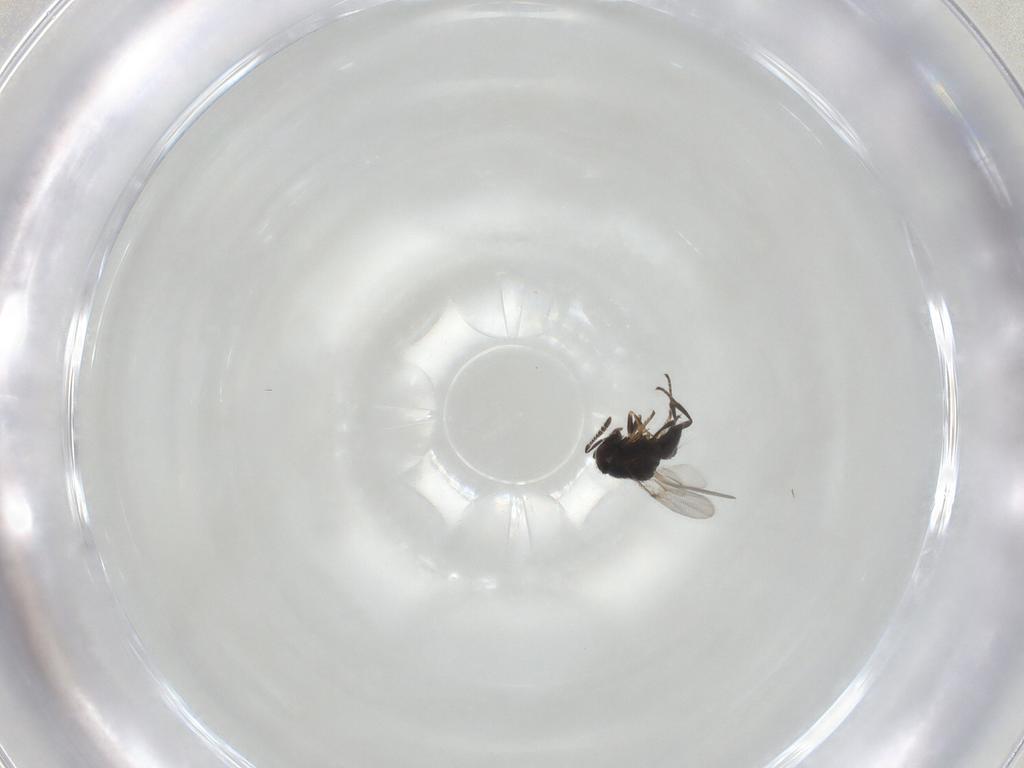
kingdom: Animalia
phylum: Arthropoda
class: Insecta
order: Hymenoptera
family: Encyrtidae
